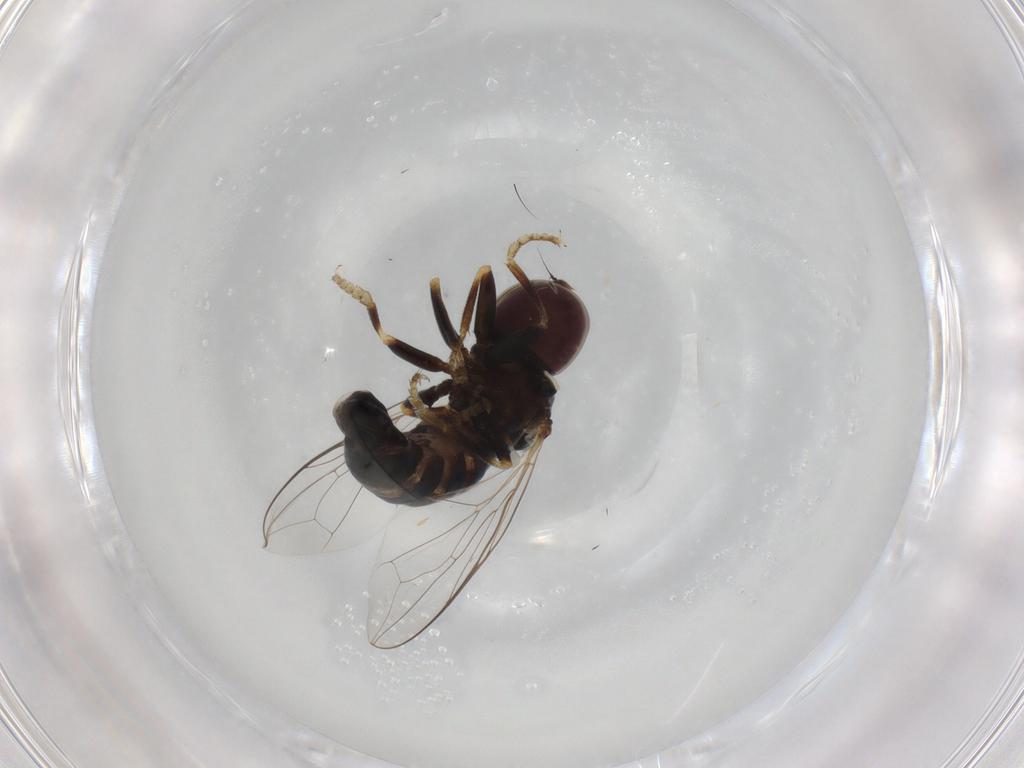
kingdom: Animalia
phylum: Arthropoda
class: Insecta
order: Diptera
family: Pipunculidae
